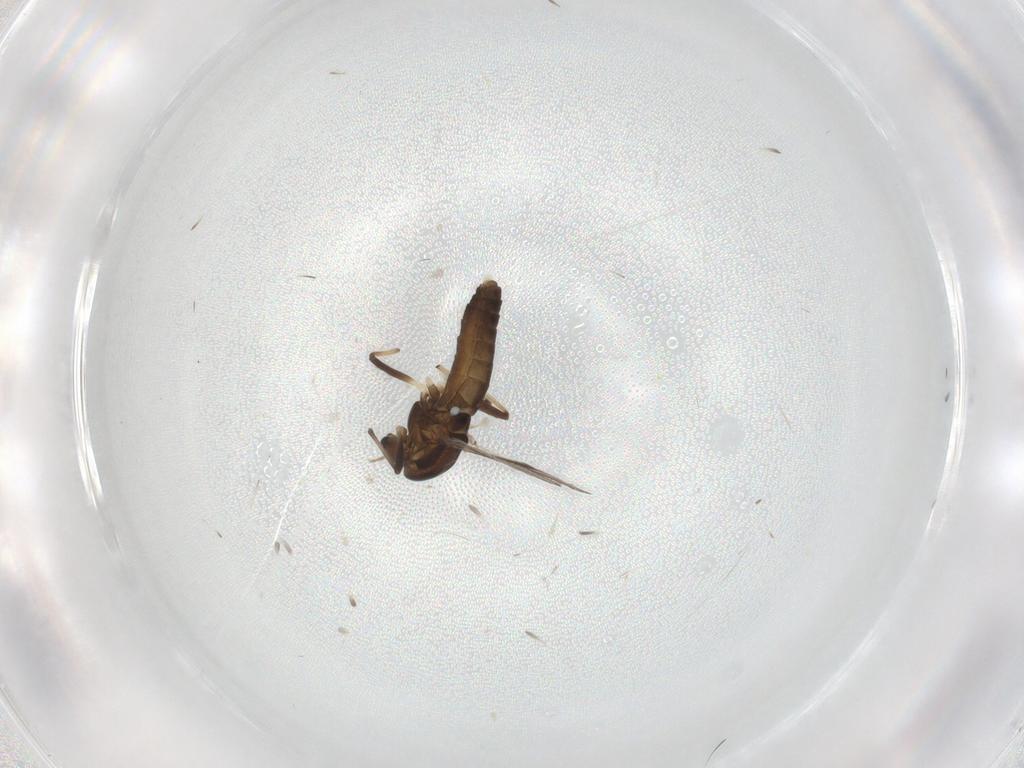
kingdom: Animalia
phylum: Arthropoda
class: Insecta
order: Diptera
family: Chironomidae
